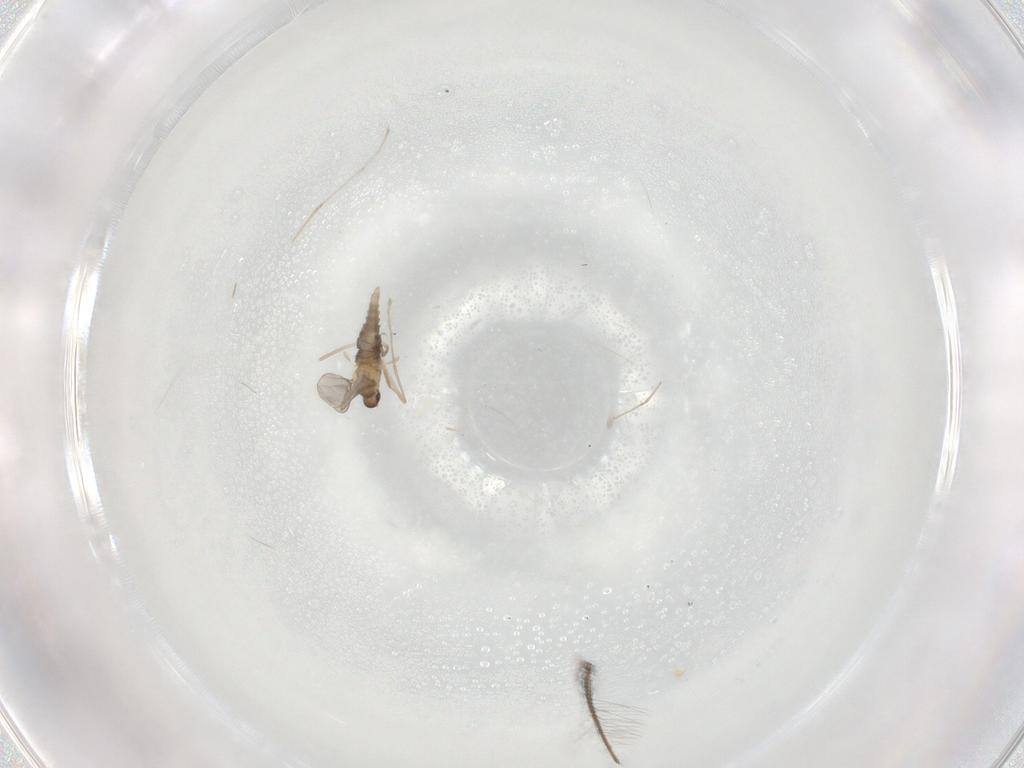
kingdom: Animalia
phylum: Arthropoda
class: Insecta
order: Diptera
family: Cecidomyiidae
